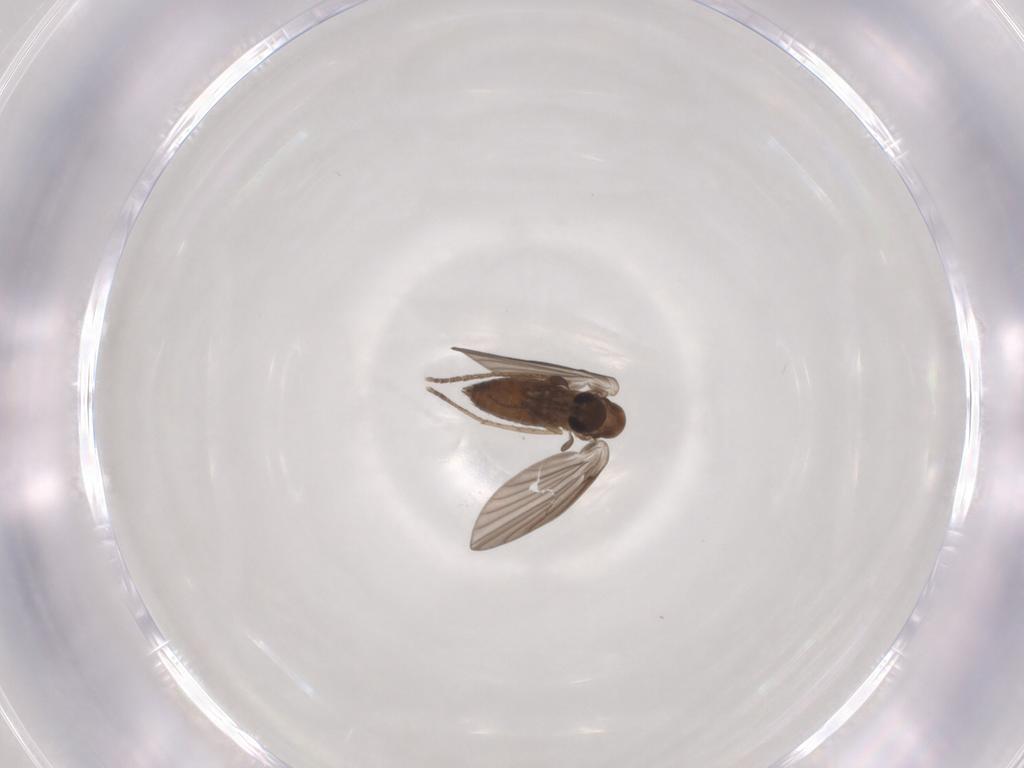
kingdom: Animalia
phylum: Arthropoda
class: Insecta
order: Diptera
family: Psychodidae
